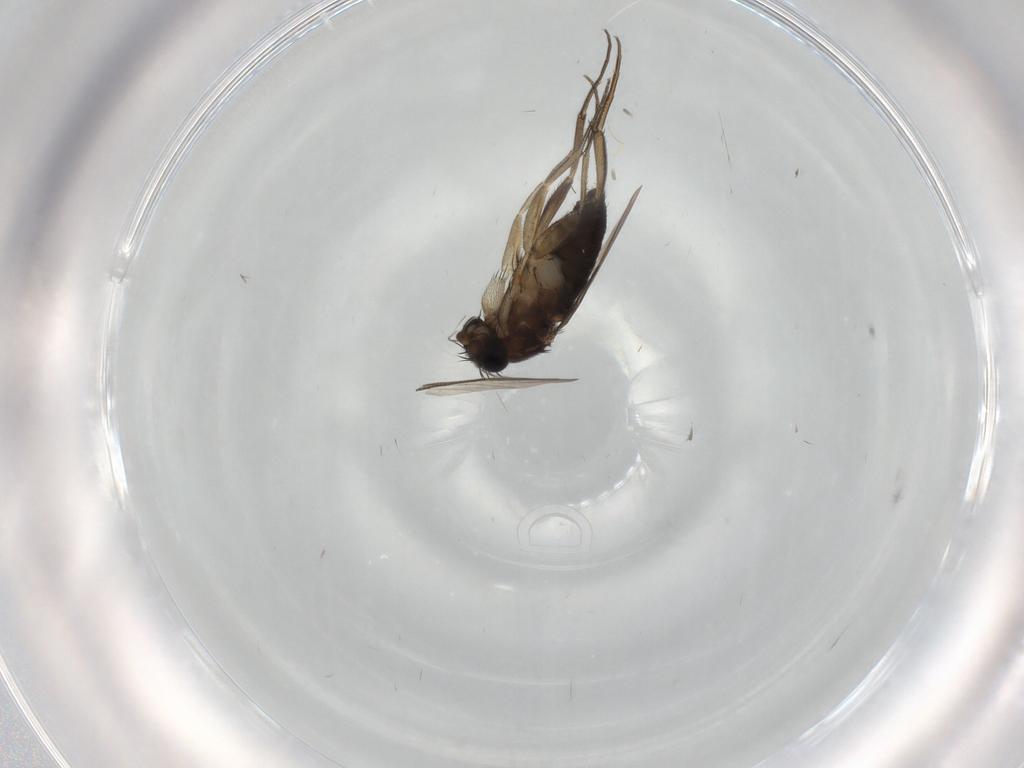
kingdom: Animalia
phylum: Arthropoda
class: Insecta
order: Diptera
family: Phoridae
